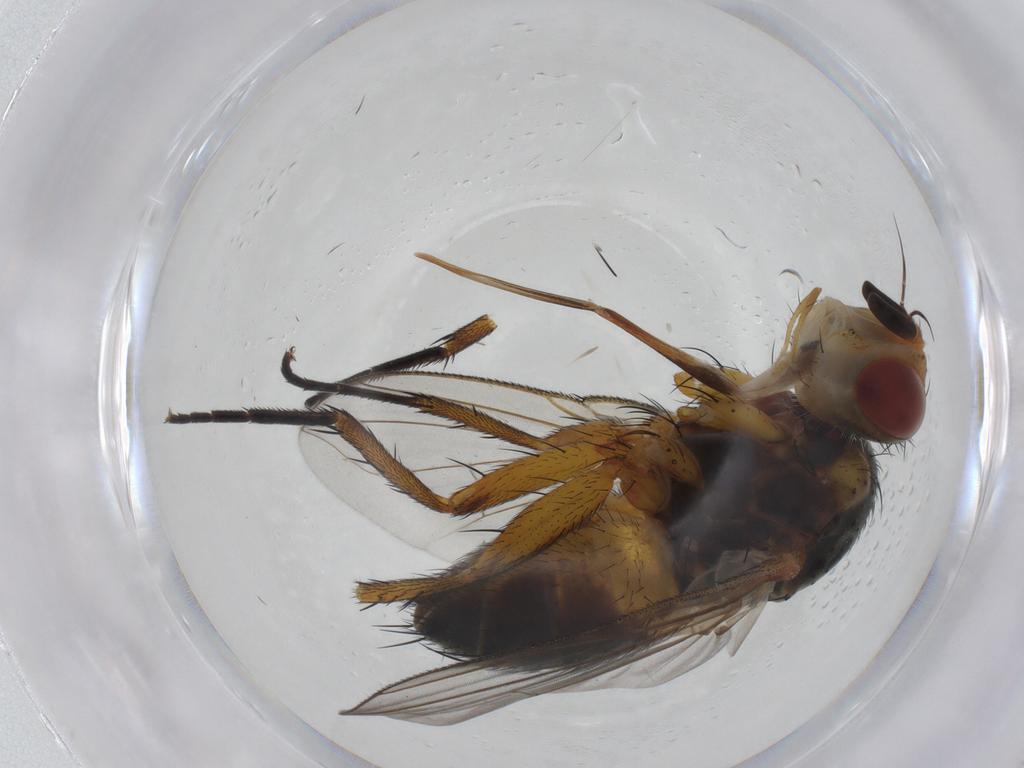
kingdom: Animalia
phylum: Arthropoda
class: Insecta
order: Diptera
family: Tachinidae
